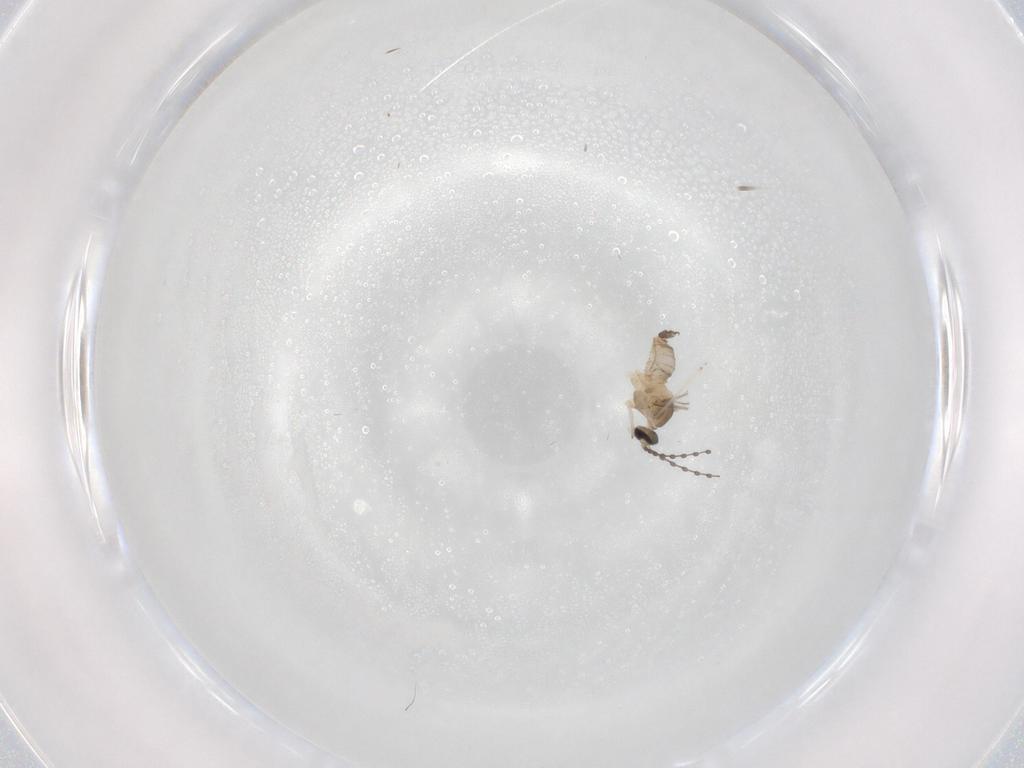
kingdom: Animalia
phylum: Arthropoda
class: Insecta
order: Diptera
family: Cecidomyiidae
